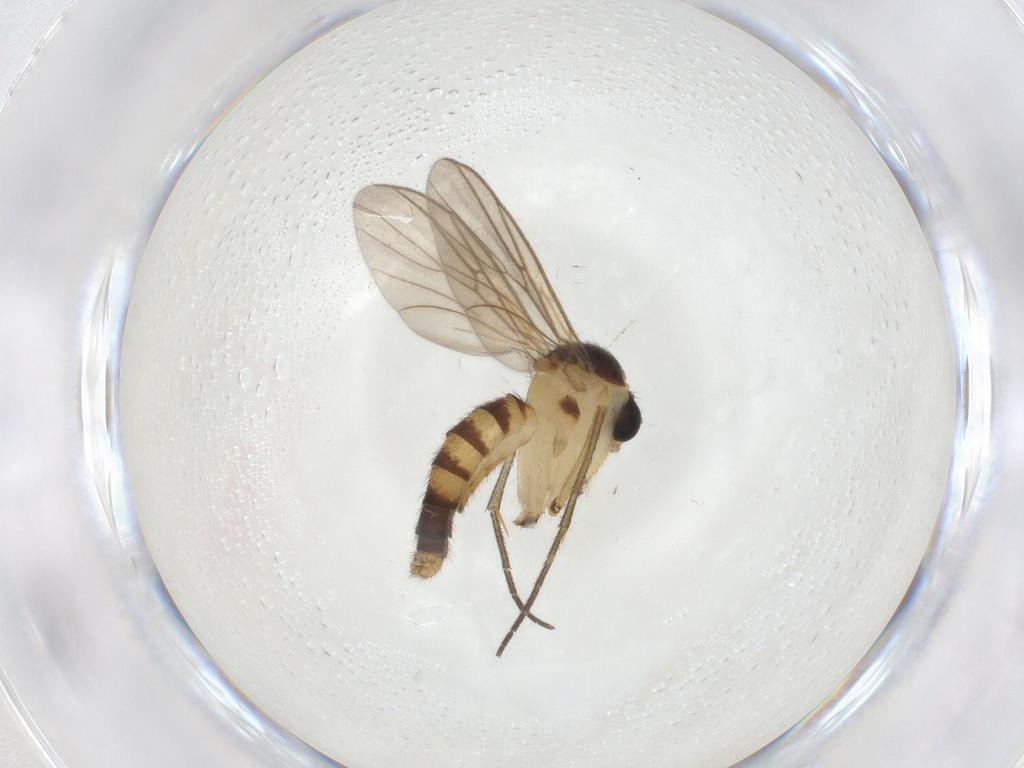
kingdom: Animalia
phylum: Arthropoda
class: Insecta
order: Diptera
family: Mycetophilidae
